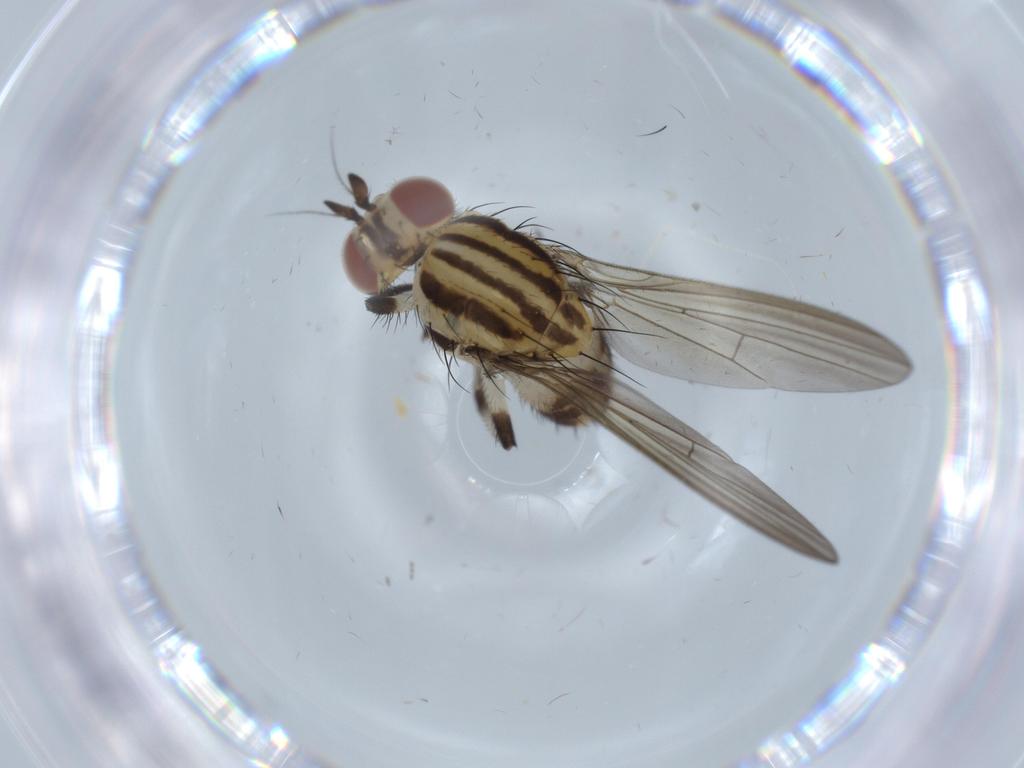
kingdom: Animalia
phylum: Arthropoda
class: Insecta
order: Diptera
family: Lauxaniidae
